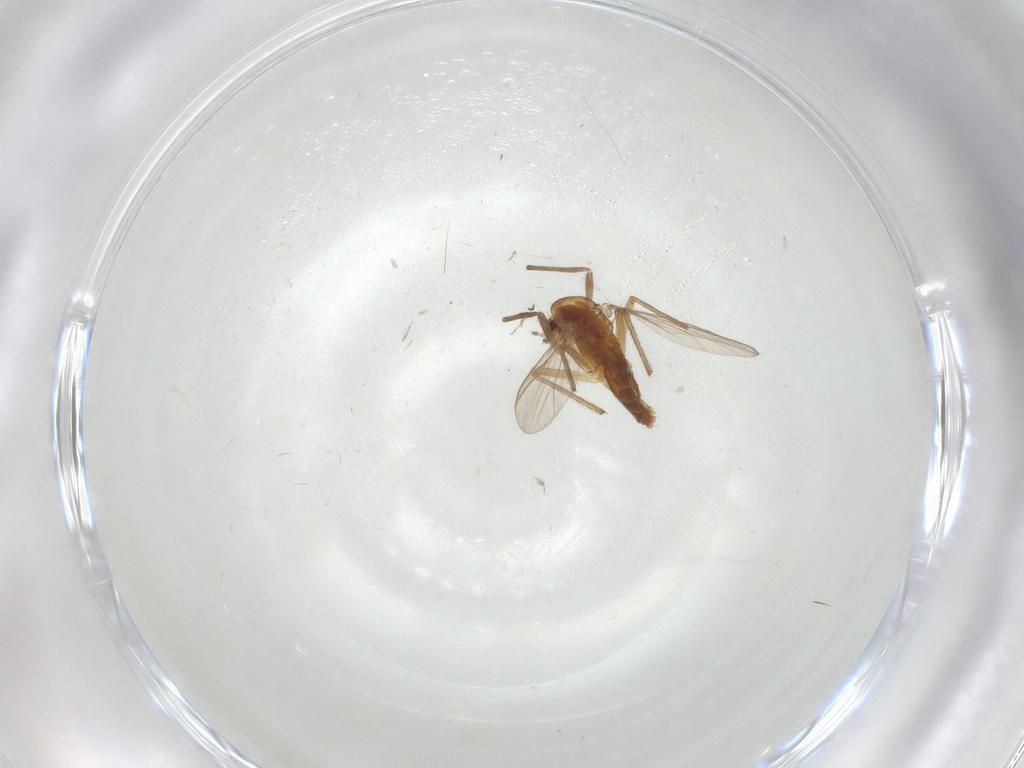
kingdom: Animalia
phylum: Arthropoda
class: Insecta
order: Diptera
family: Chironomidae
